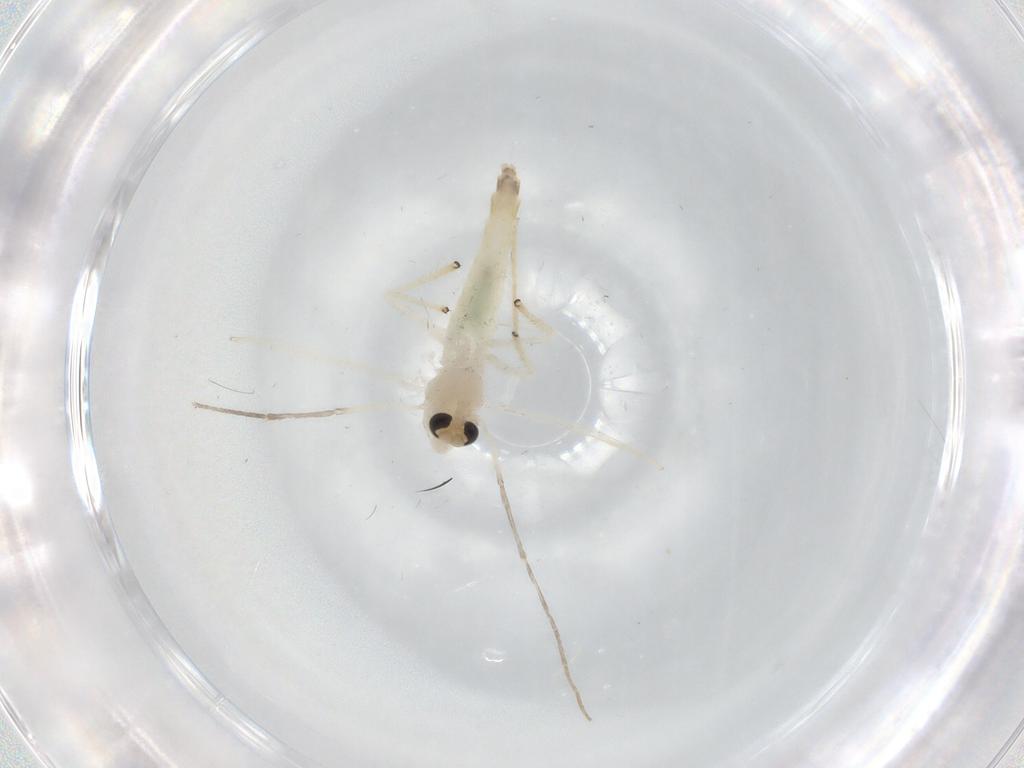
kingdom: Animalia
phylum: Arthropoda
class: Insecta
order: Diptera
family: Chironomidae
